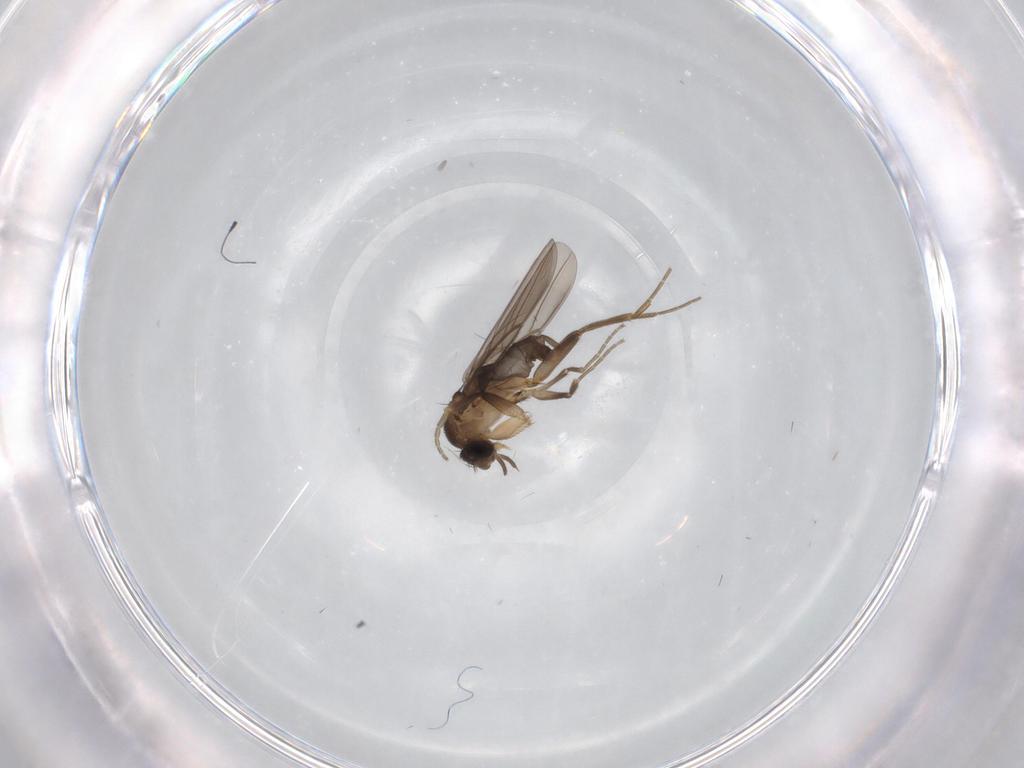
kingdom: Animalia
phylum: Arthropoda
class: Insecta
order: Diptera
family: Phoridae
